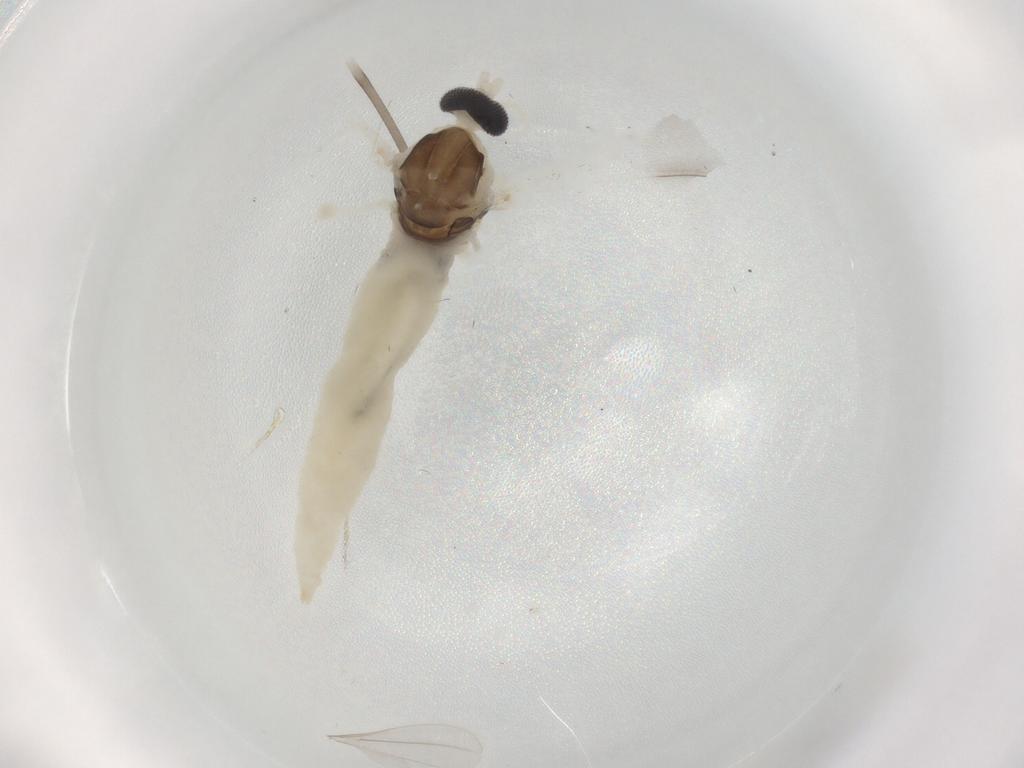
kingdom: Animalia
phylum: Arthropoda
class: Insecta
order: Diptera
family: Phoridae
